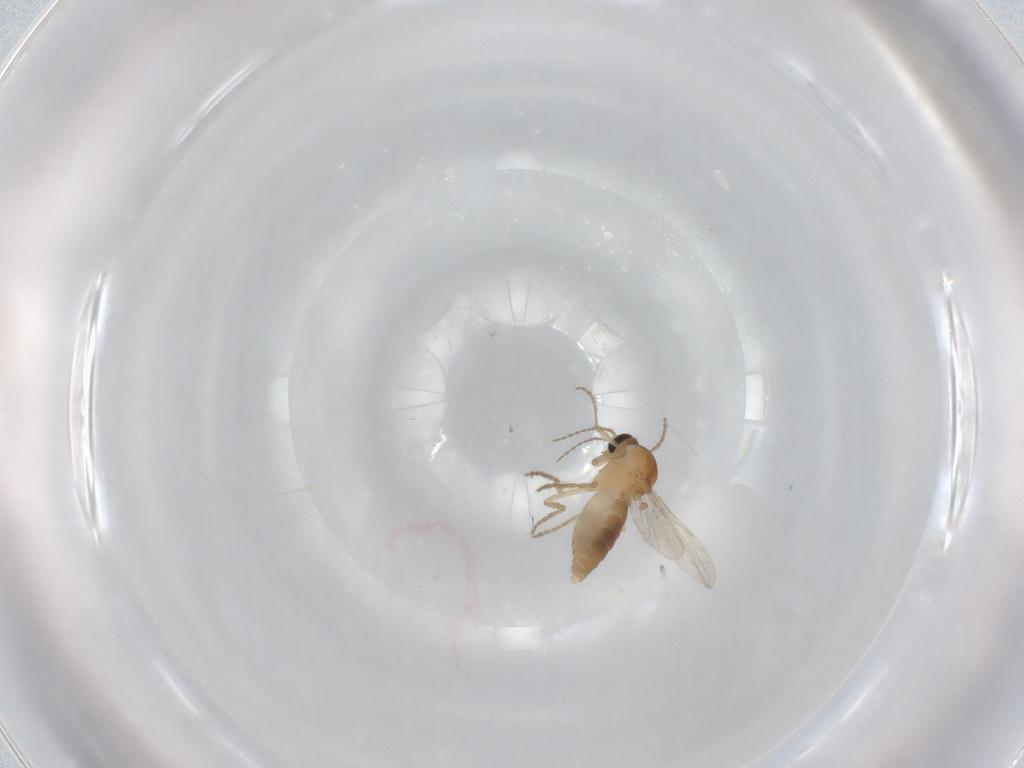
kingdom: Animalia
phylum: Arthropoda
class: Insecta
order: Diptera
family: Ceratopogonidae
